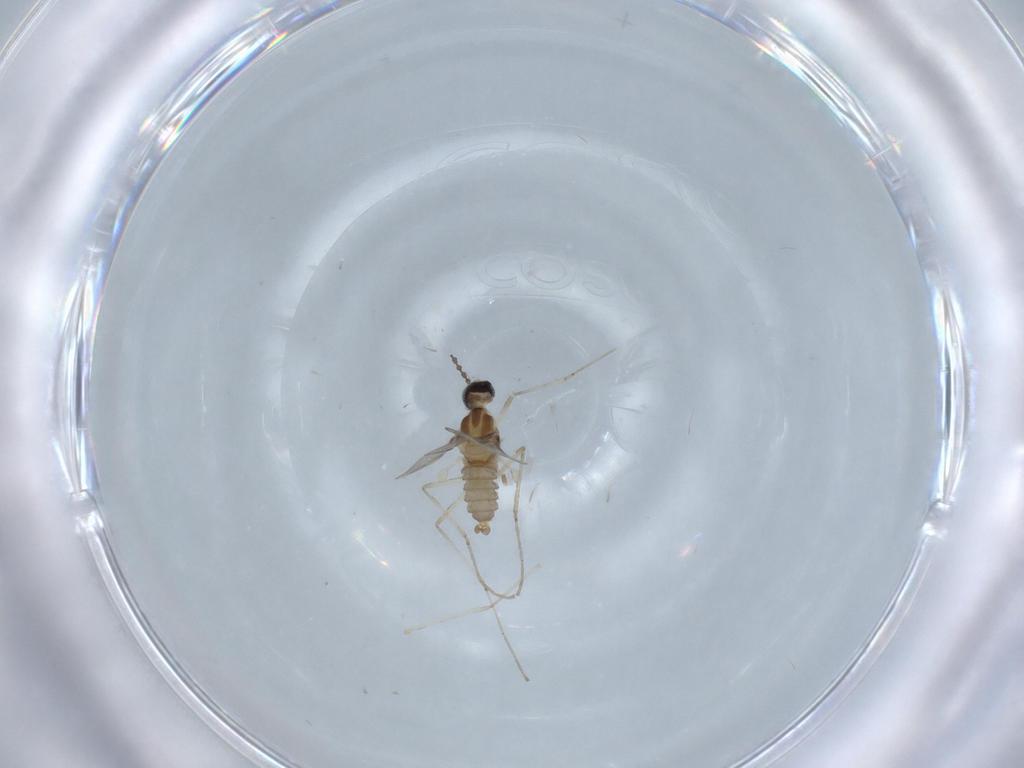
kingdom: Animalia
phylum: Arthropoda
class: Insecta
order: Diptera
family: Cecidomyiidae
